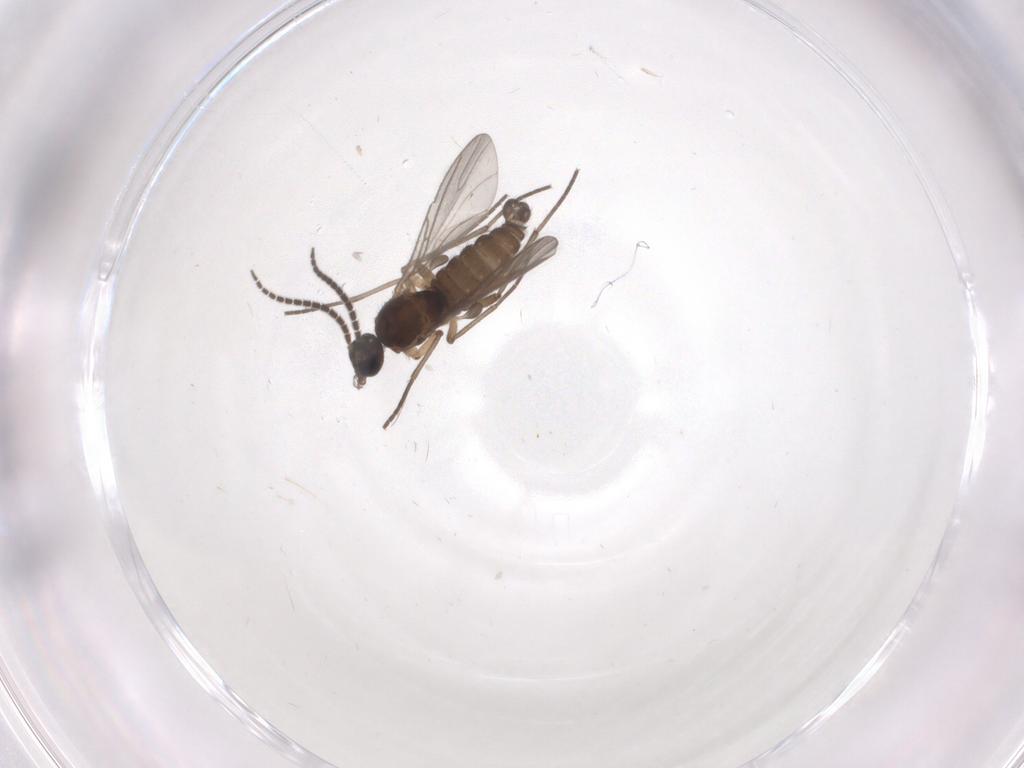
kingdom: Animalia
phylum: Arthropoda
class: Insecta
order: Diptera
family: Sciaridae
